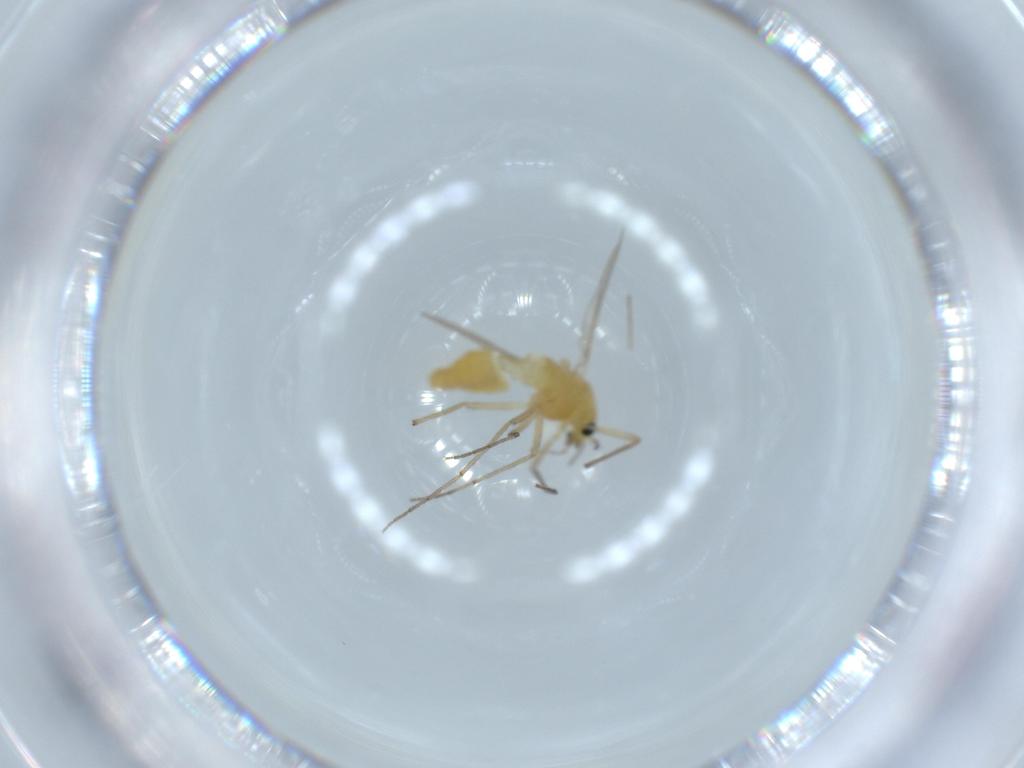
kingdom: Animalia
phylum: Arthropoda
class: Insecta
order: Diptera
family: Chironomidae
